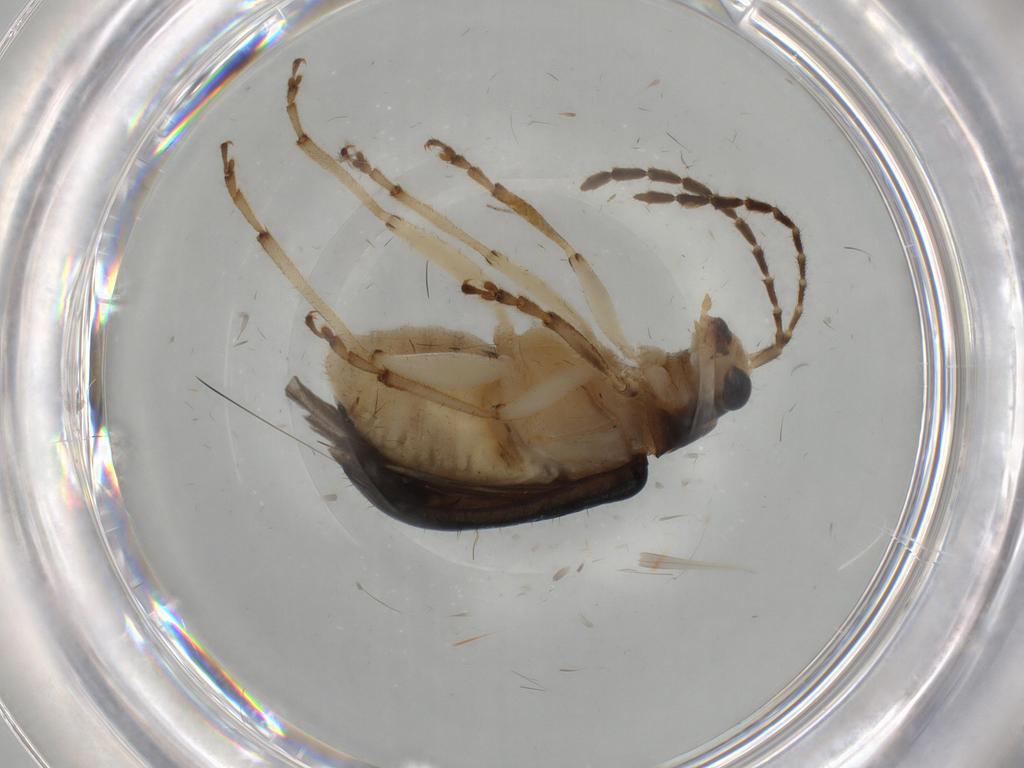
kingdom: Animalia
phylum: Arthropoda
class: Insecta
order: Coleoptera
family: Chrysomelidae
